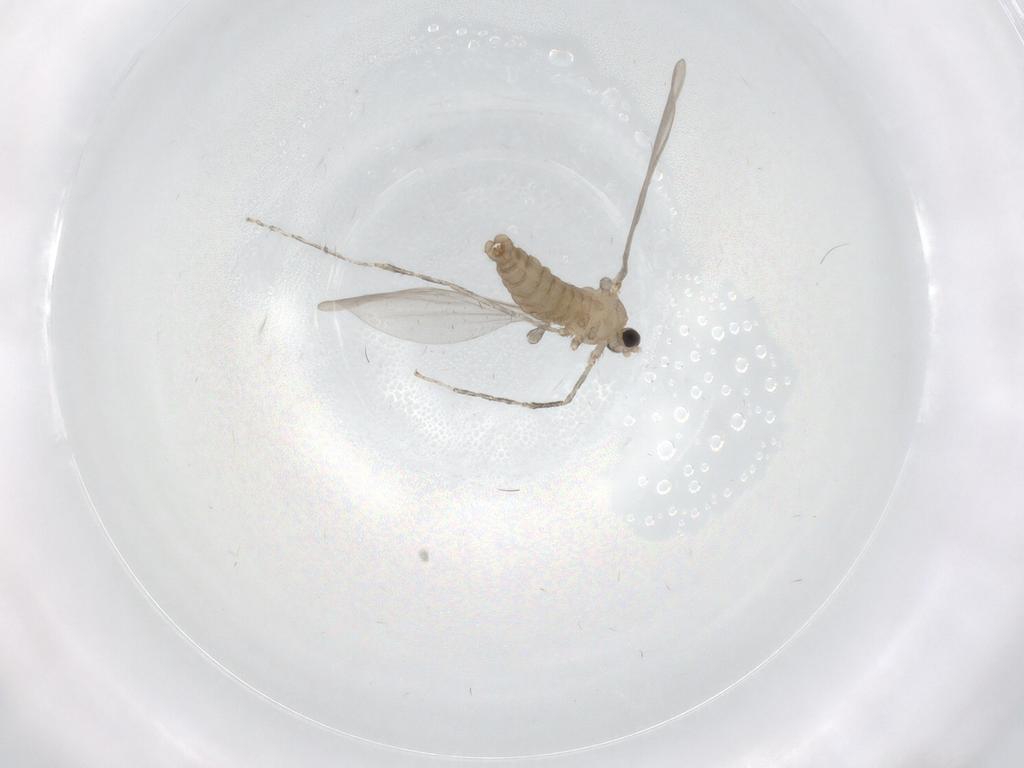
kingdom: Animalia
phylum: Arthropoda
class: Insecta
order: Diptera
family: Cecidomyiidae
